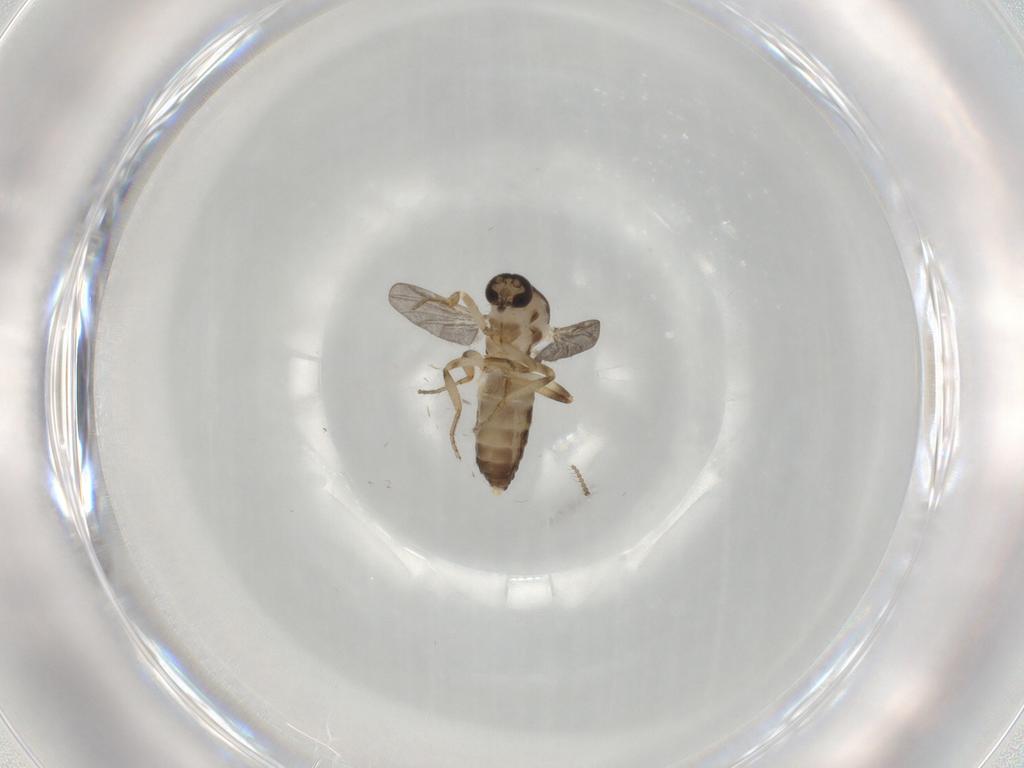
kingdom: Animalia
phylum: Arthropoda
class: Insecta
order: Diptera
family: Ceratopogonidae
